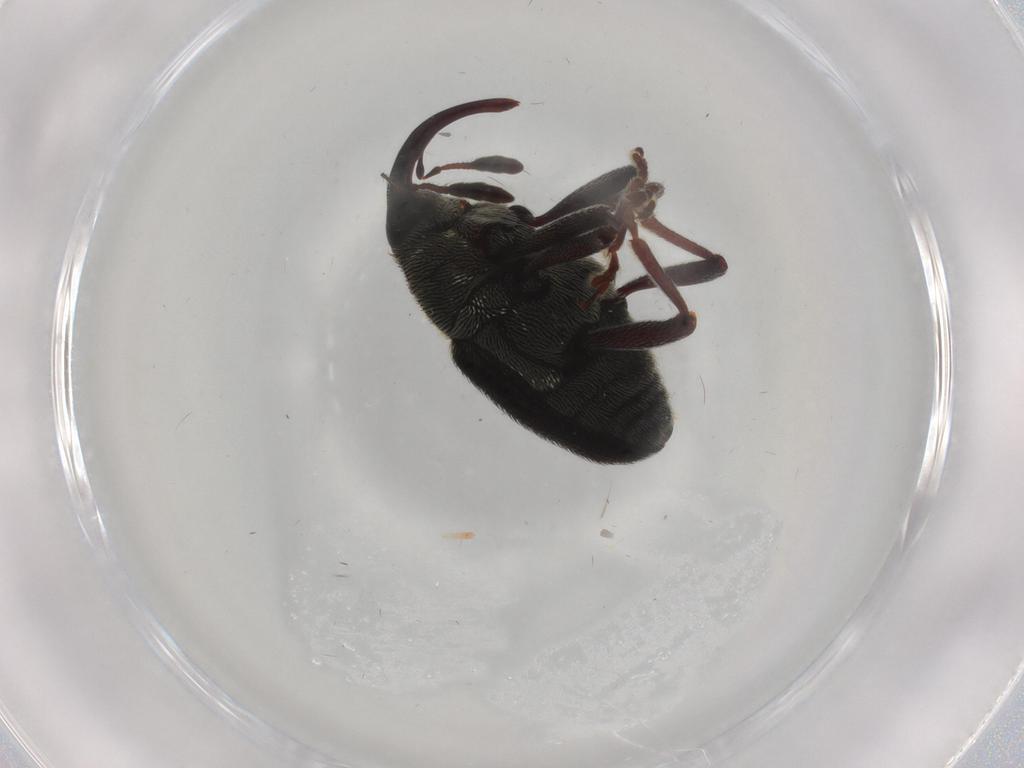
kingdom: Animalia
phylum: Arthropoda
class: Insecta
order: Coleoptera
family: Curculionidae
